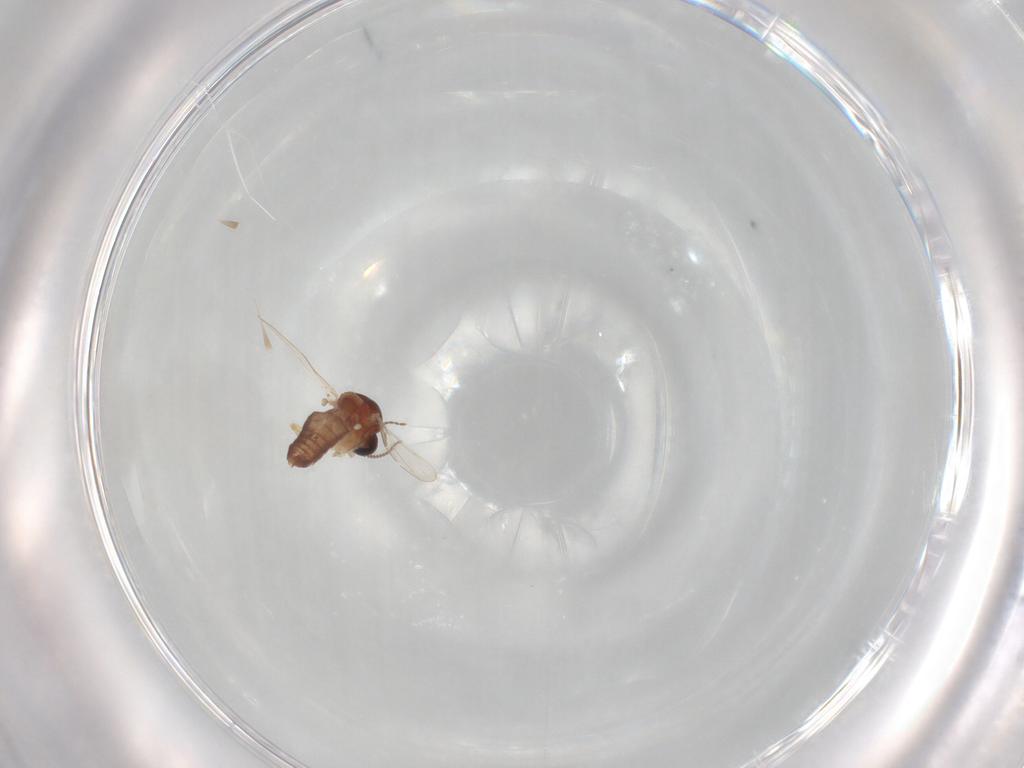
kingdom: Animalia
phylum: Arthropoda
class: Insecta
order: Diptera
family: Ceratopogonidae
